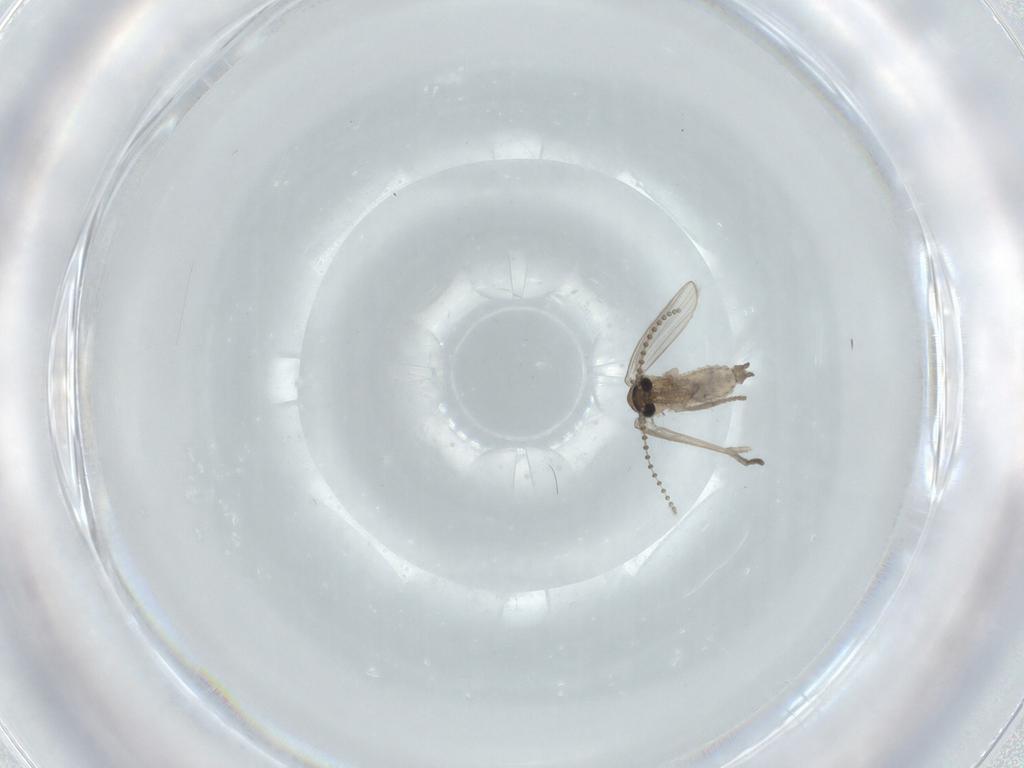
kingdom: Animalia
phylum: Arthropoda
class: Insecta
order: Diptera
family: Psychodidae
